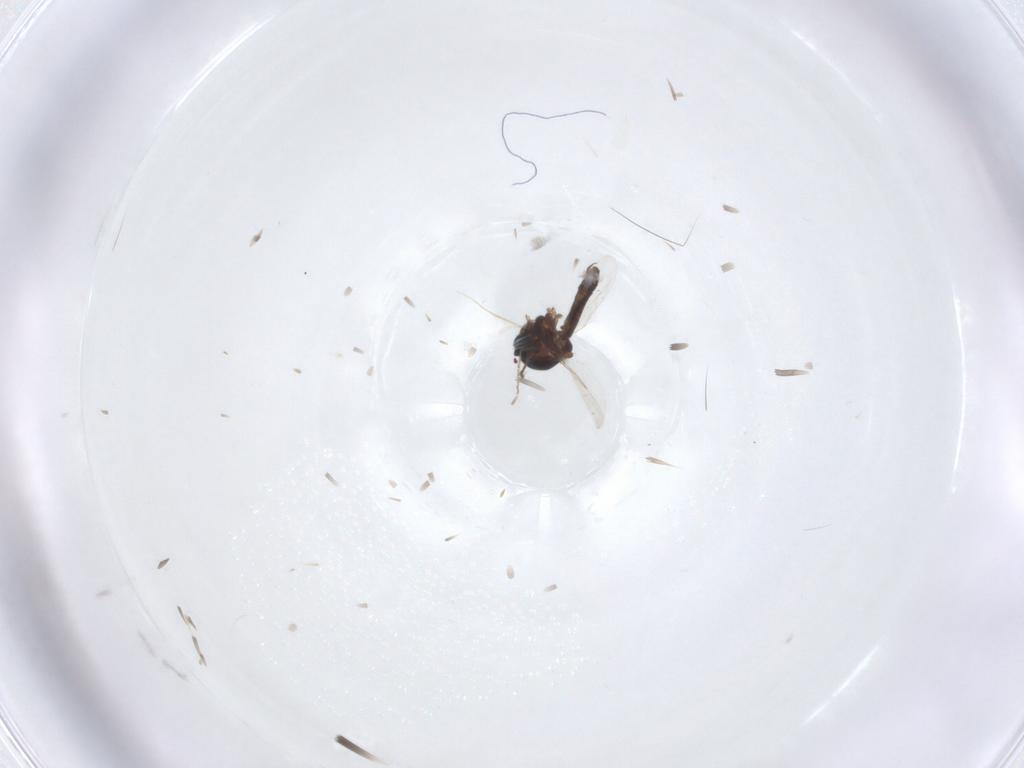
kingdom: Animalia
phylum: Arthropoda
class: Insecta
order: Diptera
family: Ceratopogonidae
